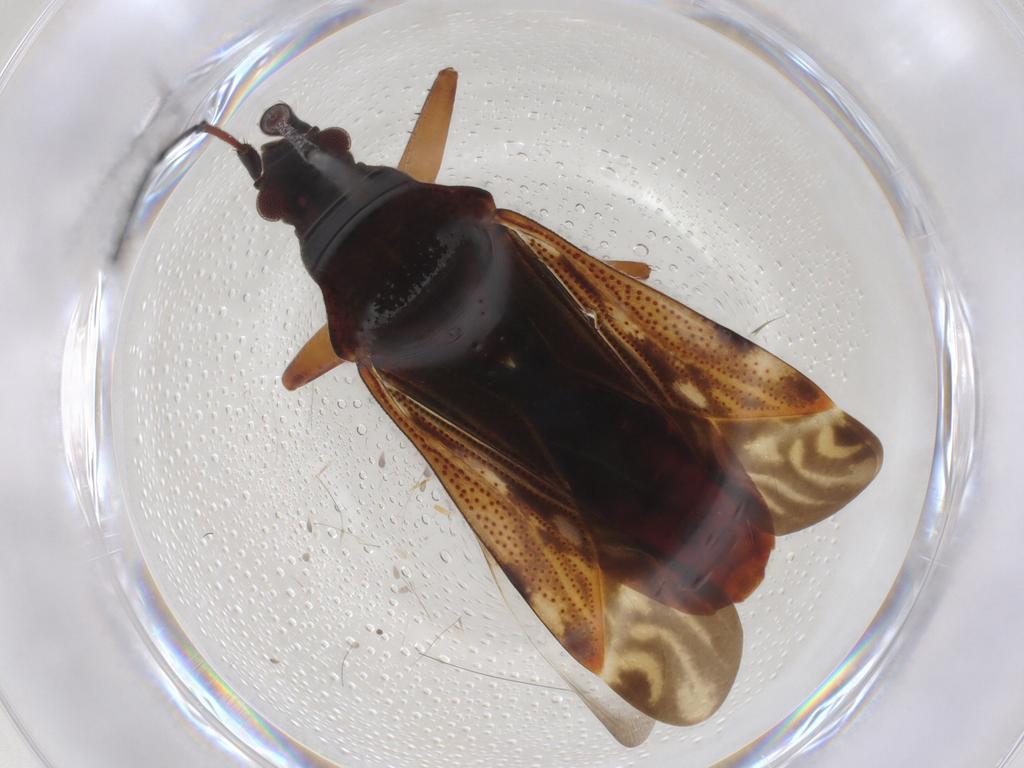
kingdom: Animalia
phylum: Arthropoda
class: Insecta
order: Hemiptera
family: Rhyparochromidae
